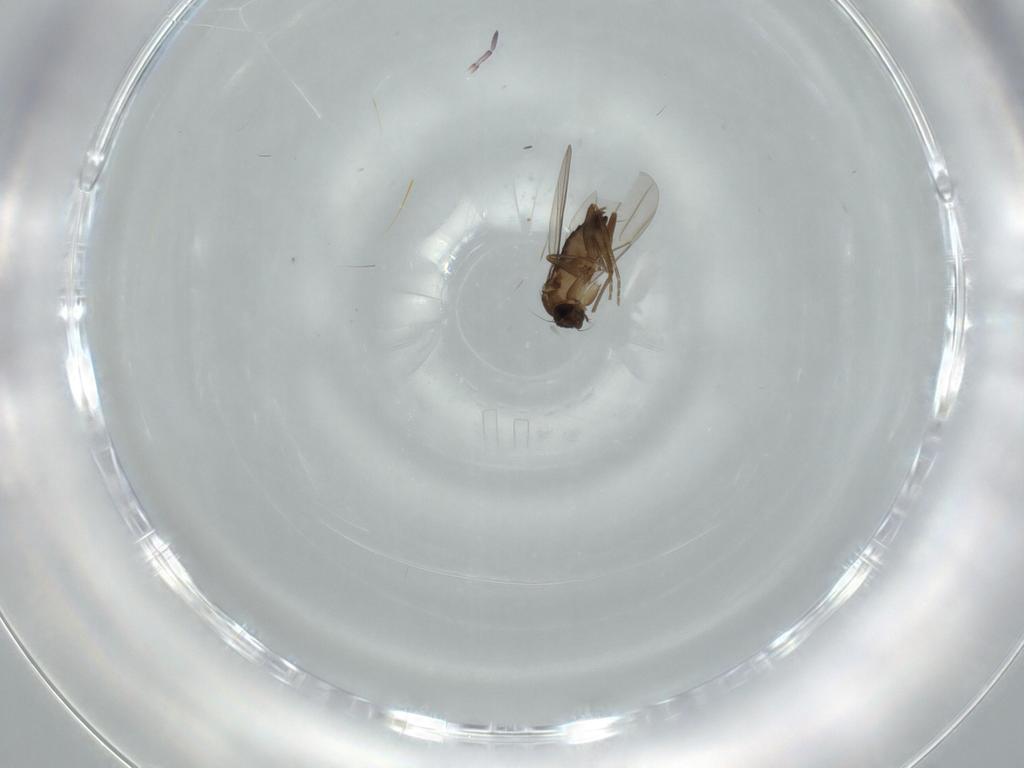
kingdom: Animalia
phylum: Arthropoda
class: Insecta
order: Diptera
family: Phoridae
